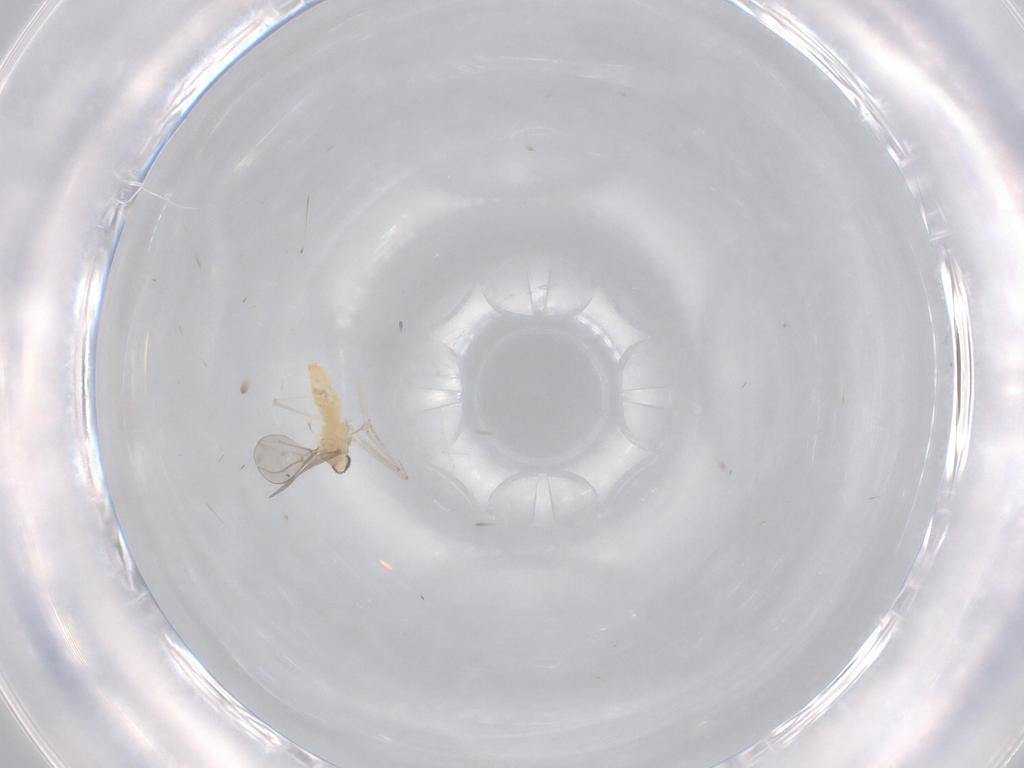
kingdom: Animalia
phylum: Arthropoda
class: Insecta
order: Diptera
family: Cecidomyiidae
